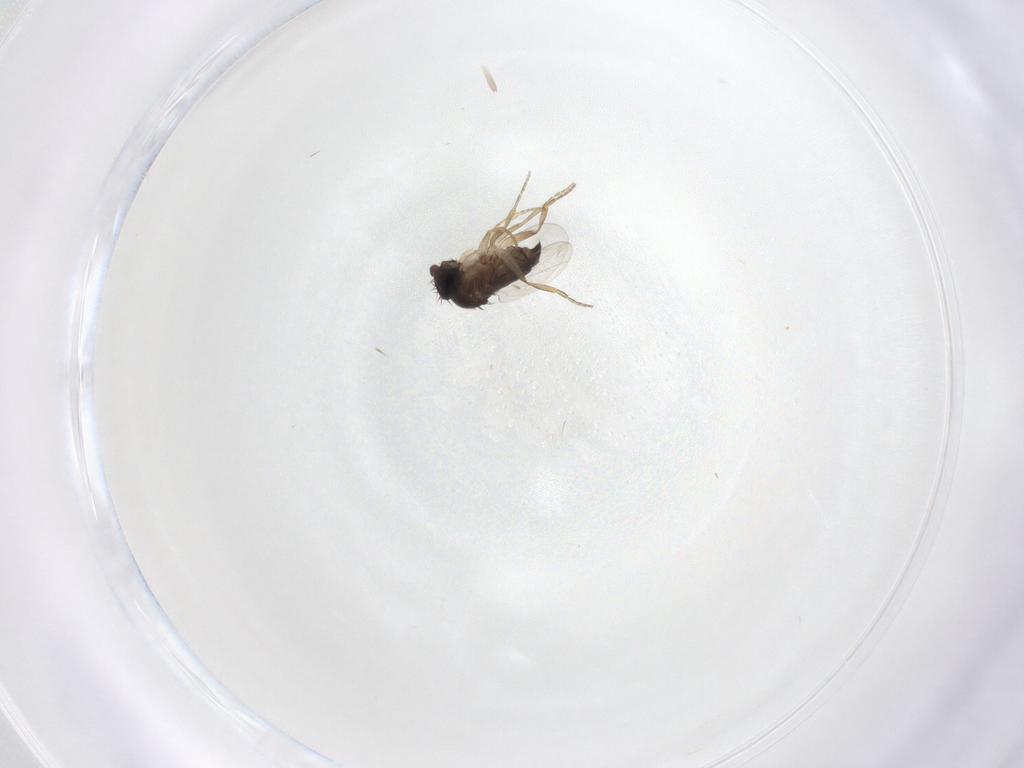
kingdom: Animalia
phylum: Arthropoda
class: Insecta
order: Diptera
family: Phoridae
